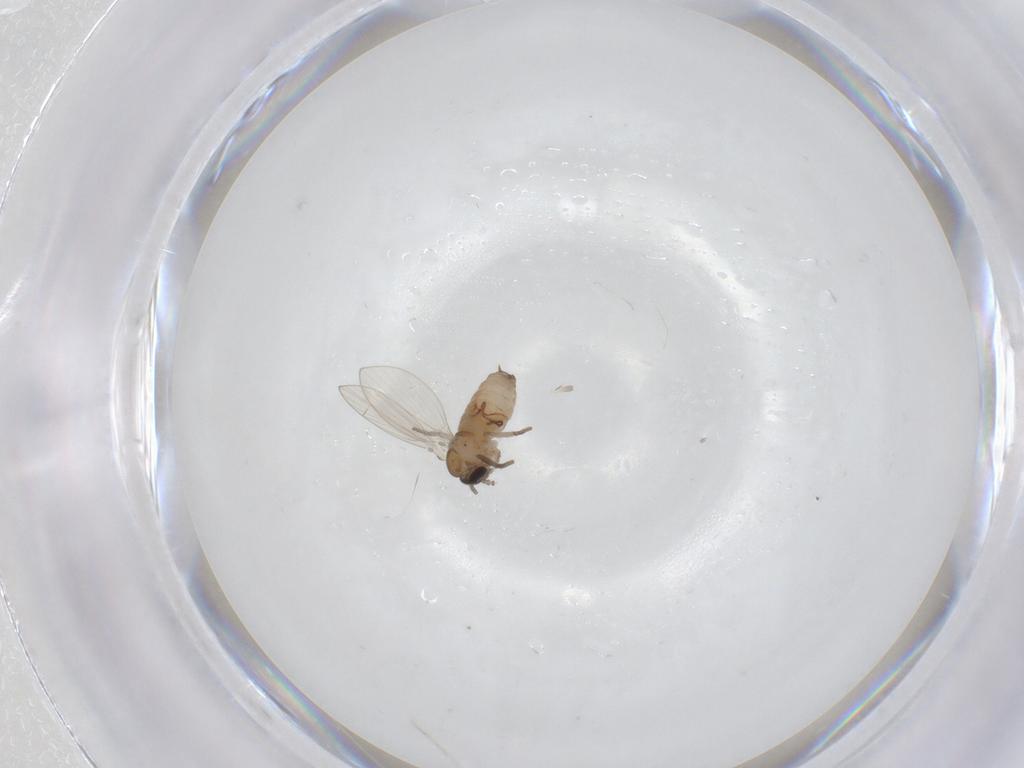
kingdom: Animalia
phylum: Arthropoda
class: Insecta
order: Diptera
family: Psychodidae
